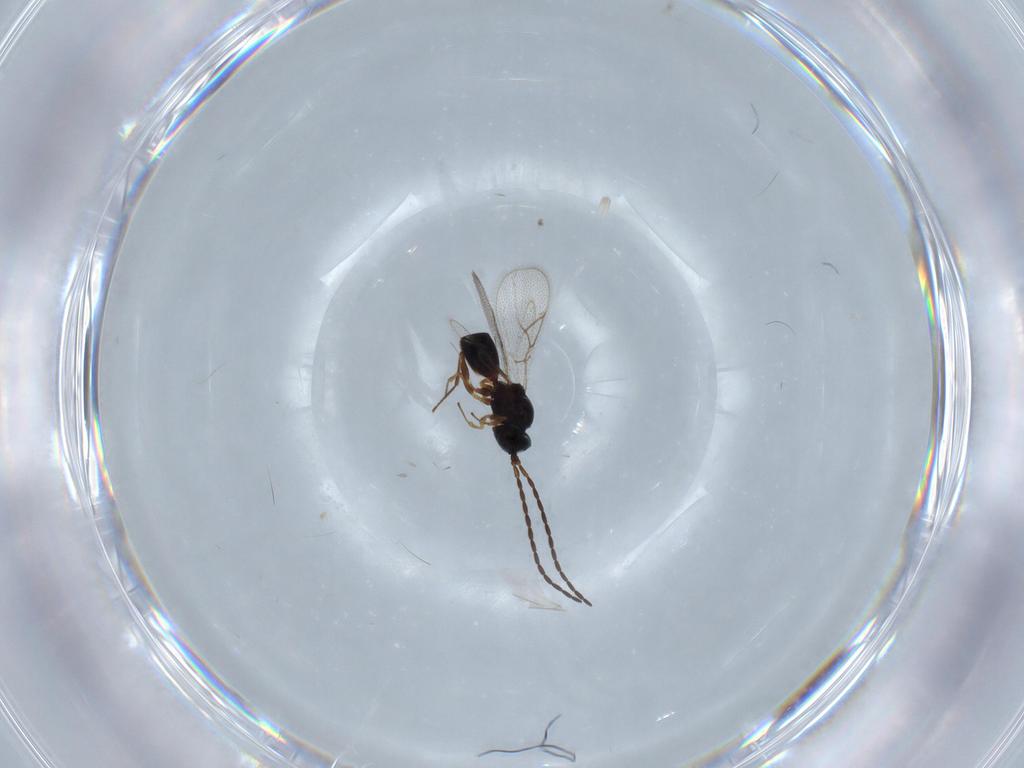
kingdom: Animalia
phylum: Arthropoda
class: Insecta
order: Hymenoptera
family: Figitidae
